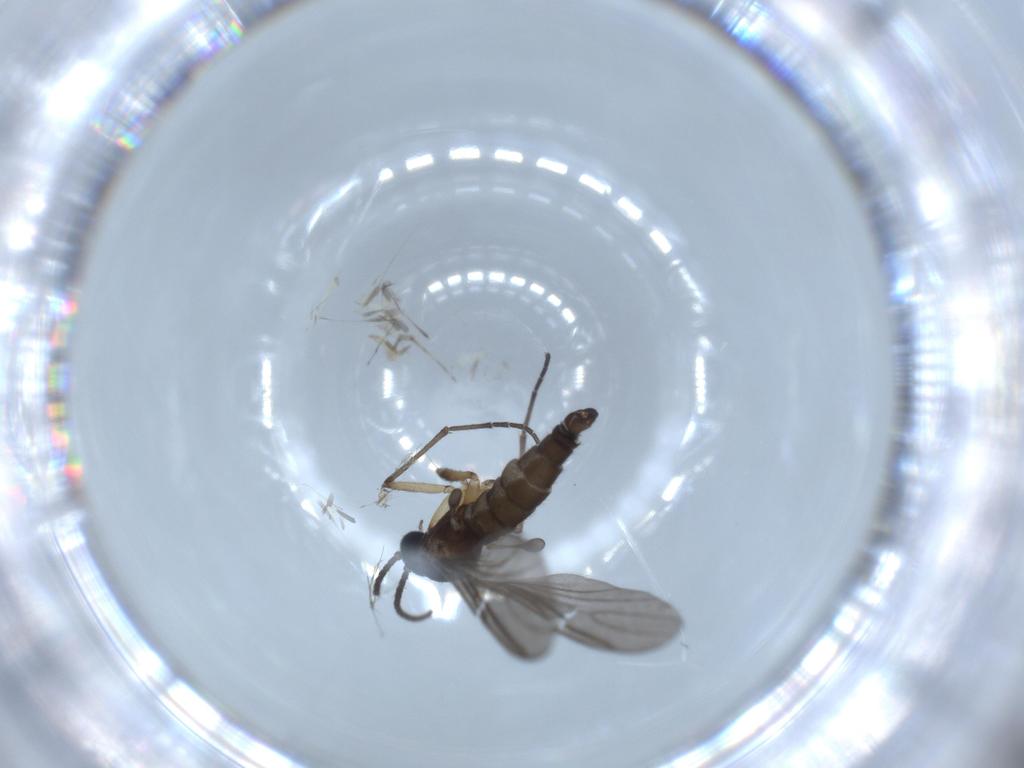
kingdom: Animalia
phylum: Arthropoda
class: Insecta
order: Diptera
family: Sciaridae
